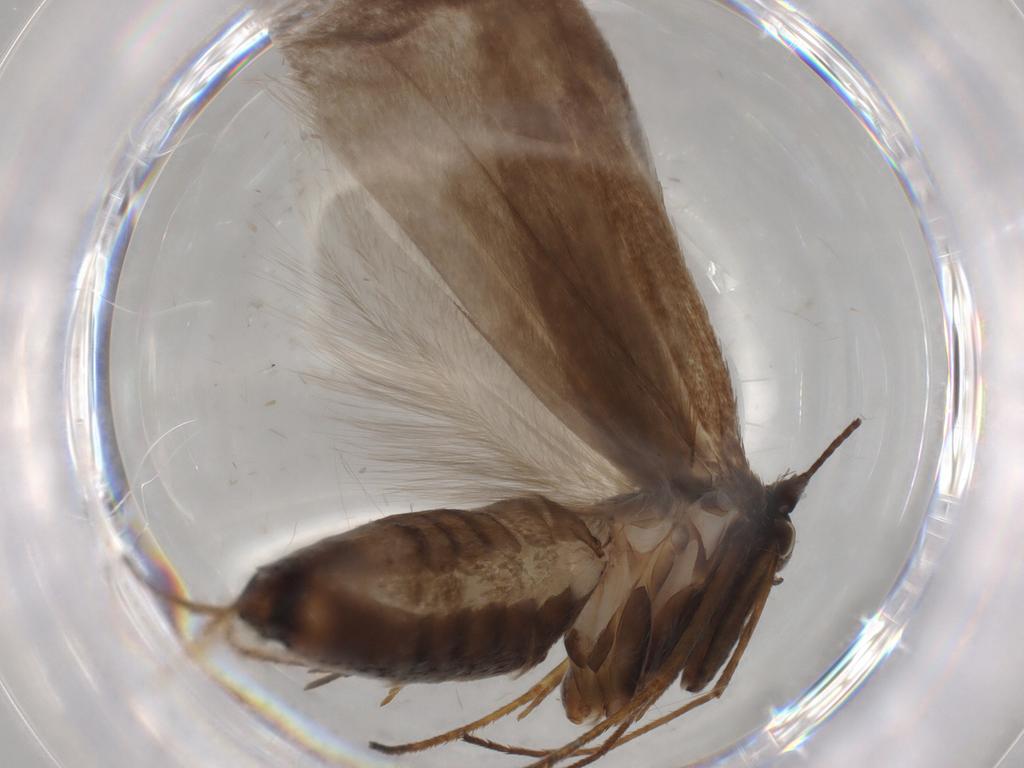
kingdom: Animalia
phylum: Arthropoda
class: Insecta
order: Lepidoptera
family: Adelidae
